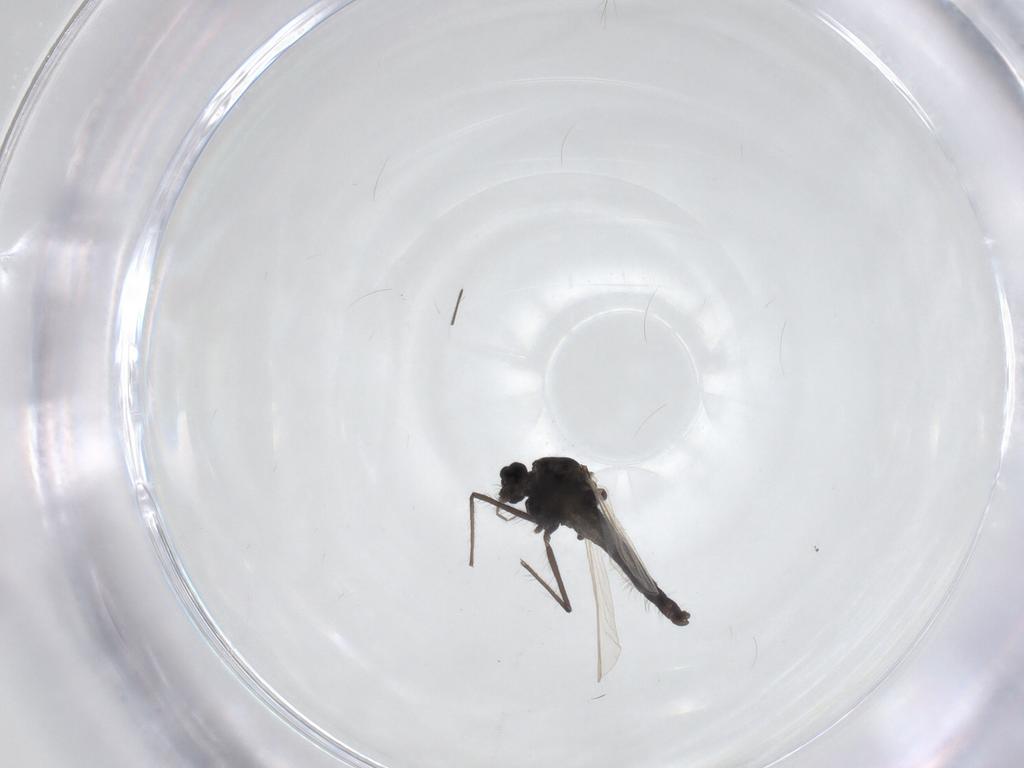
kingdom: Animalia
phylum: Arthropoda
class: Insecta
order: Diptera
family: Chironomidae
